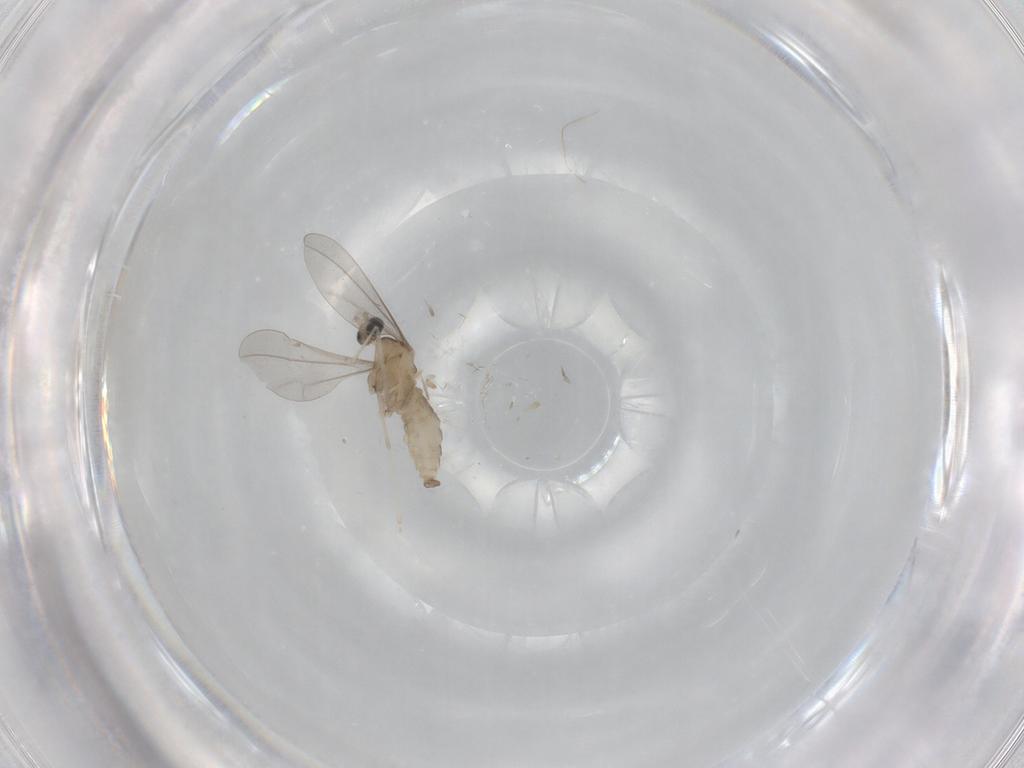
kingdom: Animalia
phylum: Arthropoda
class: Insecta
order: Diptera
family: Cecidomyiidae
